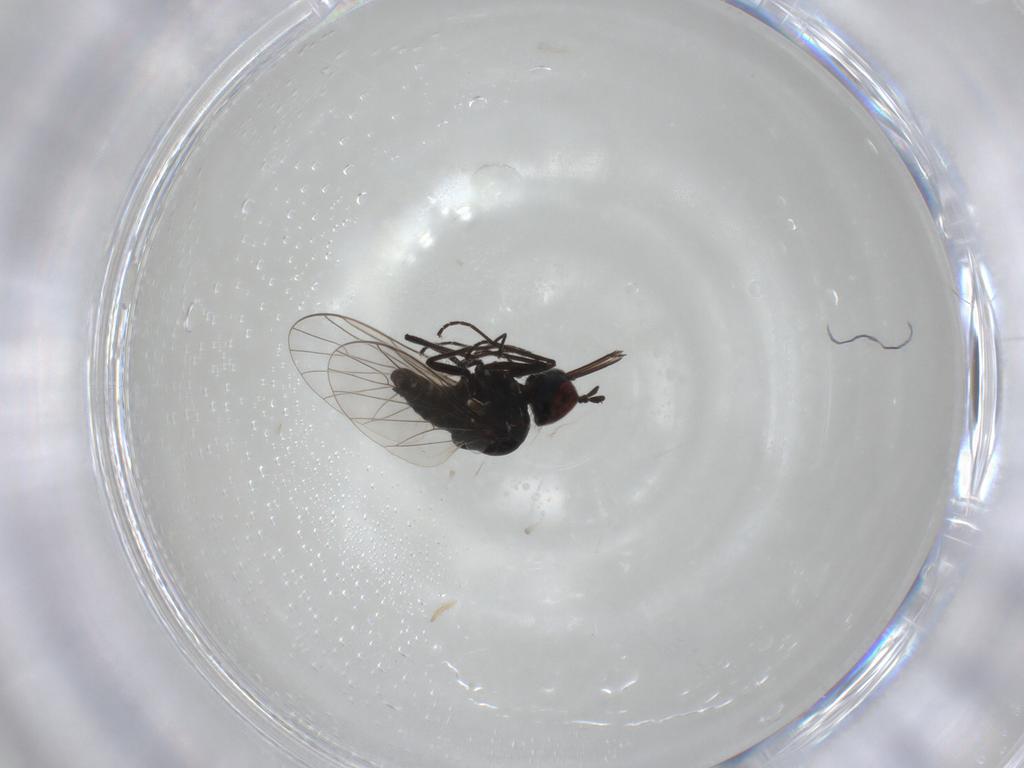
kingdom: Animalia
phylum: Arthropoda
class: Insecta
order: Diptera
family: Bombyliidae
